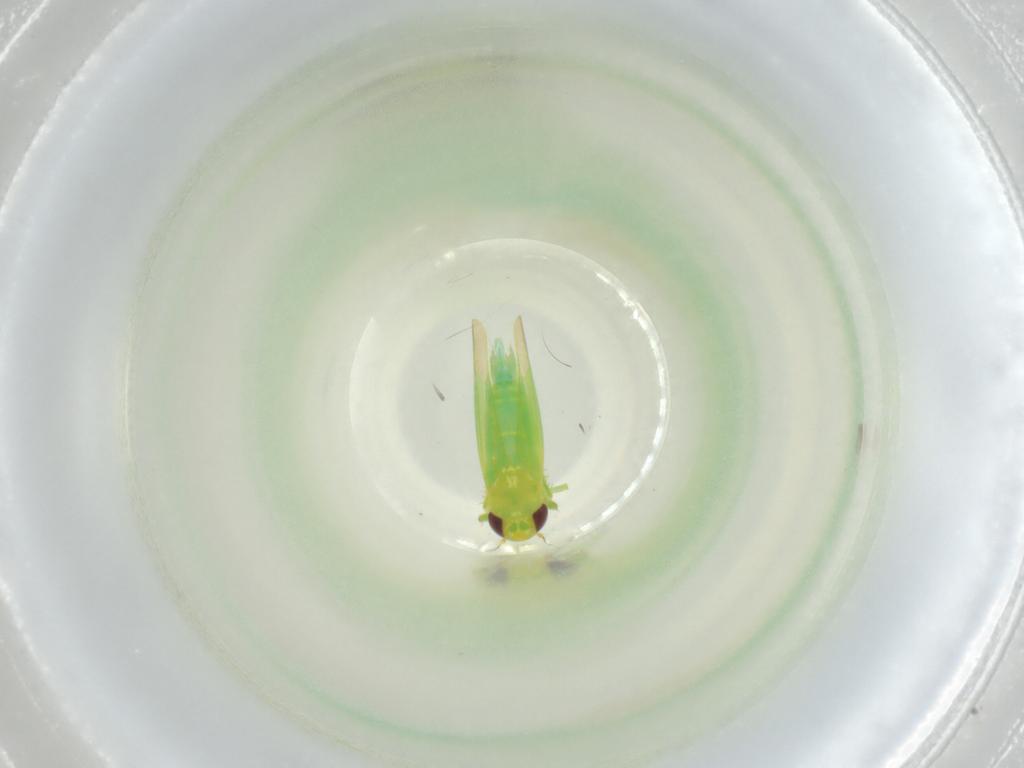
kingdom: Animalia
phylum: Arthropoda
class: Insecta
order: Hemiptera
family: Cicadellidae
